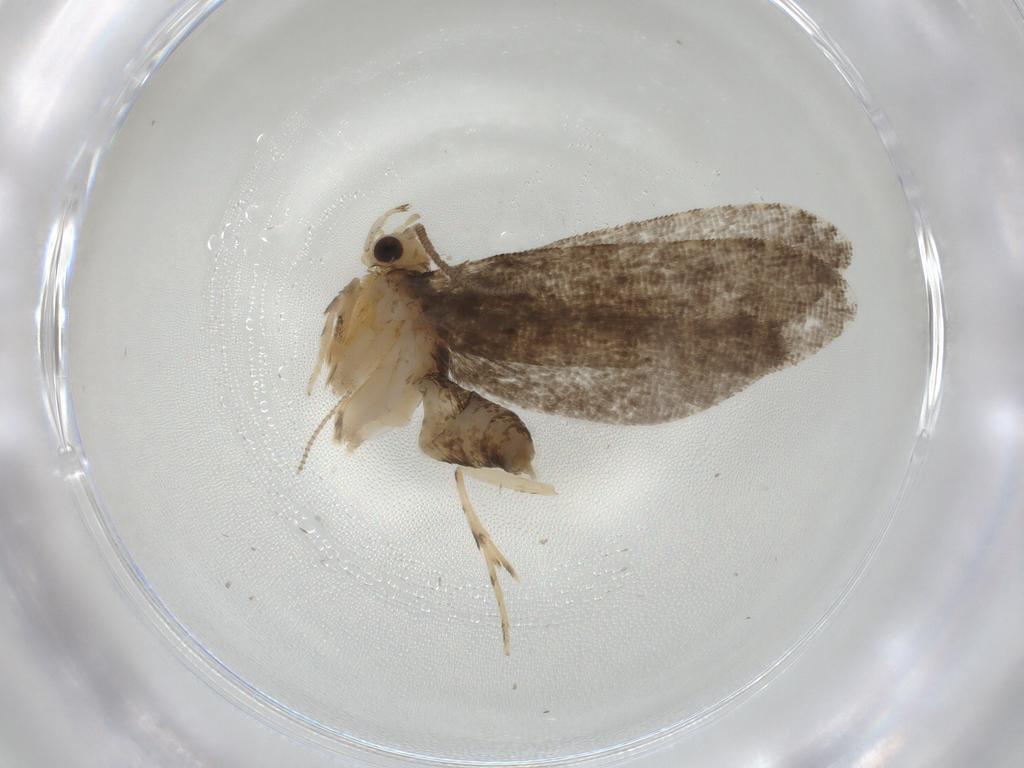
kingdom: Animalia
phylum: Arthropoda
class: Insecta
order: Lepidoptera
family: Tineidae
